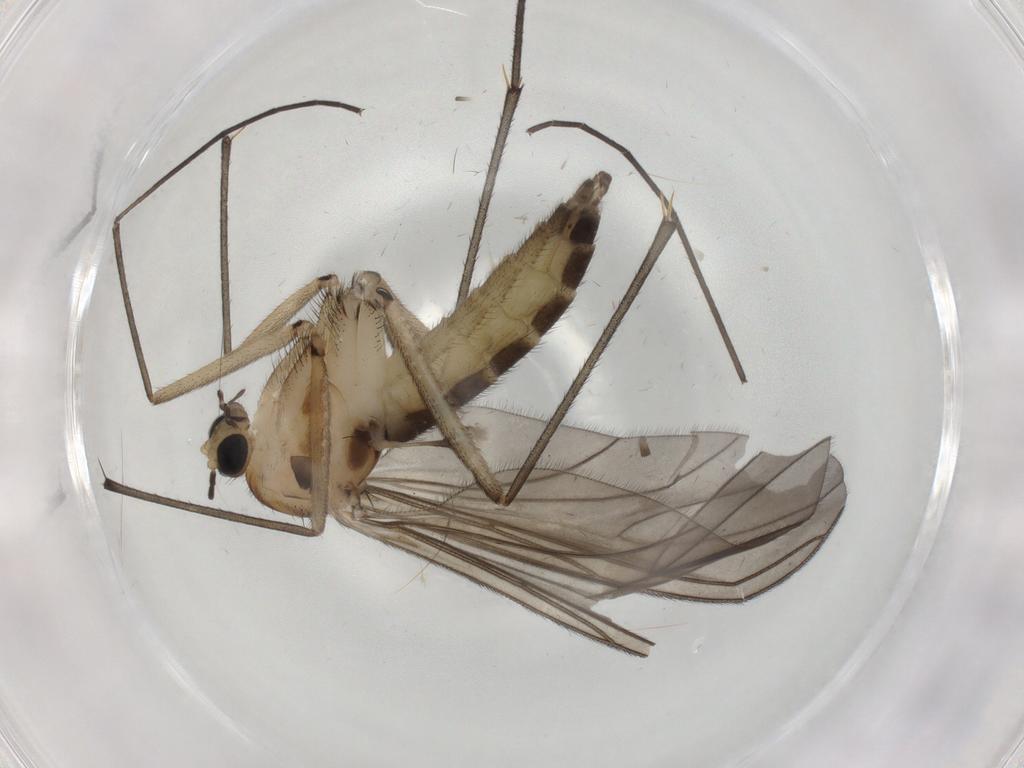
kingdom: Animalia
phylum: Arthropoda
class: Insecta
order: Diptera
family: Sciaridae
